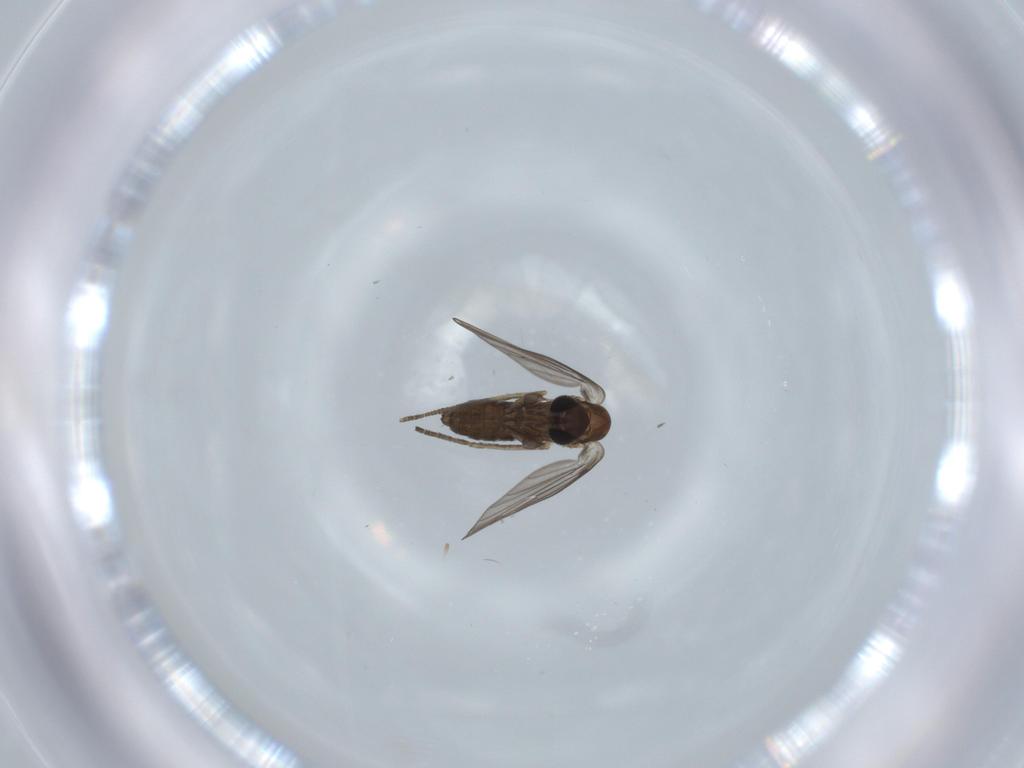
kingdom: Animalia
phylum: Arthropoda
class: Insecta
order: Diptera
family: Psychodidae
